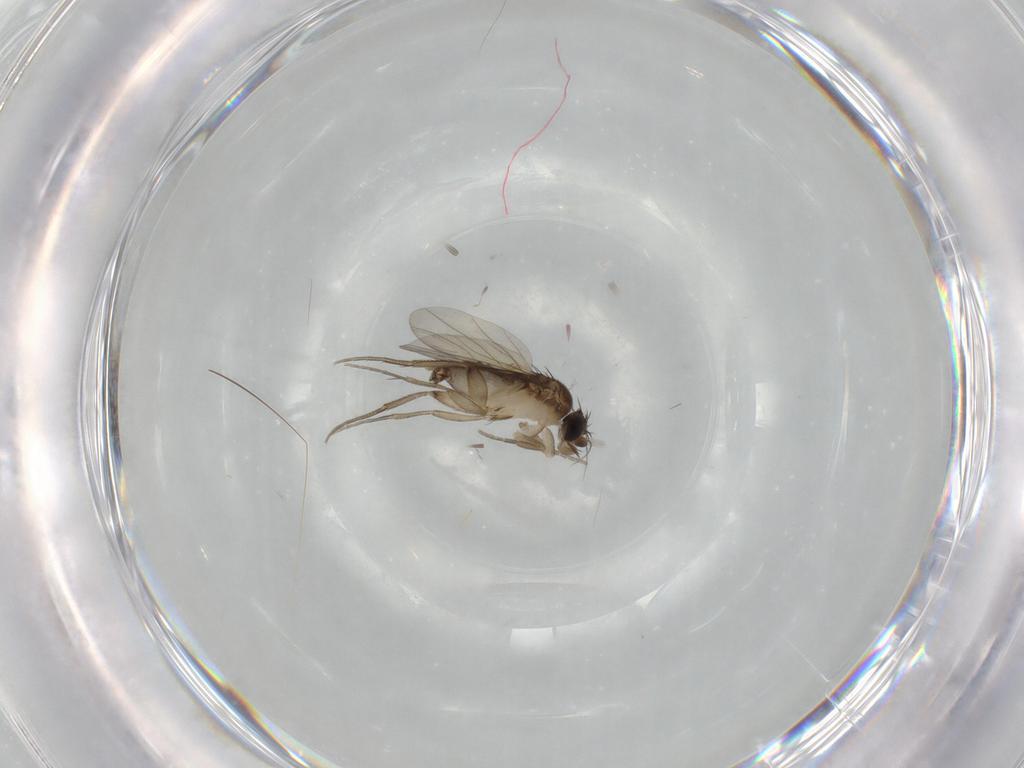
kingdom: Animalia
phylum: Arthropoda
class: Insecta
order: Diptera
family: Phoridae
